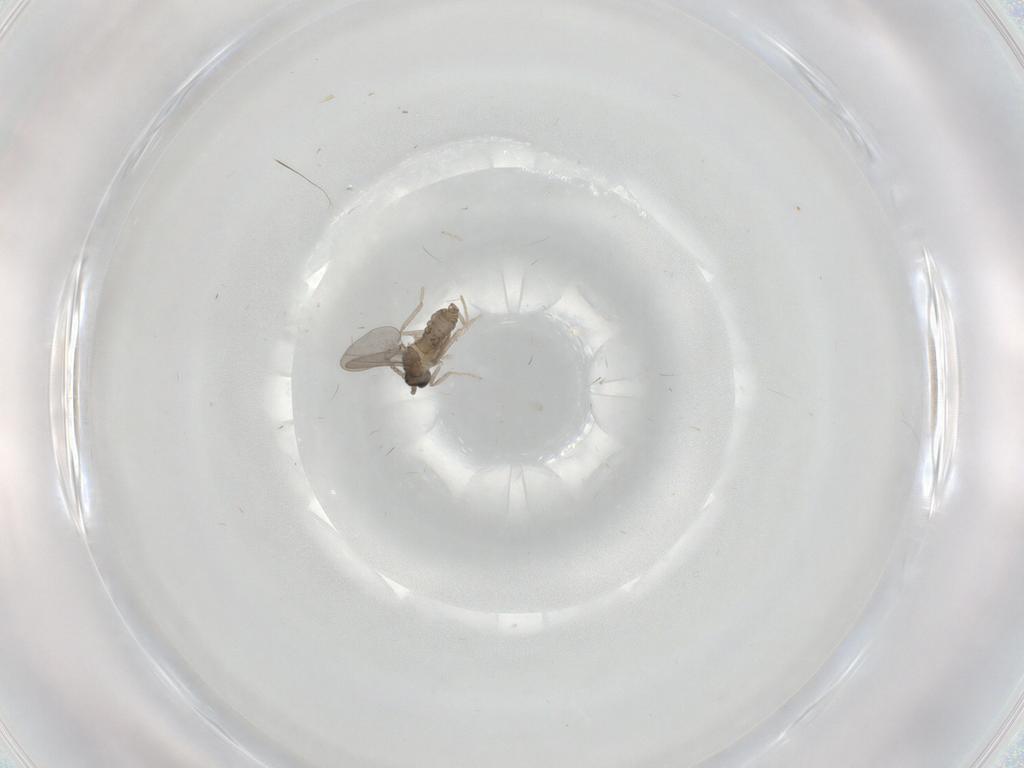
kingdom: Animalia
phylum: Arthropoda
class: Insecta
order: Diptera
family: Cecidomyiidae
